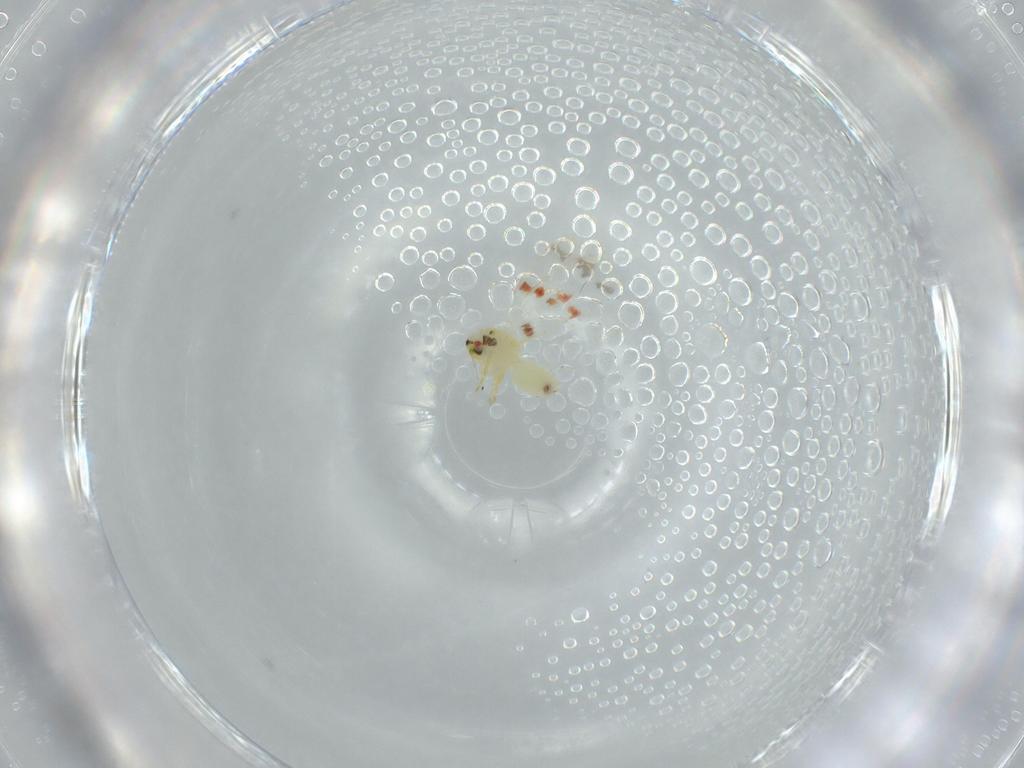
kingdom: Animalia
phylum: Arthropoda
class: Insecta
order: Hemiptera
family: Aleyrodidae
